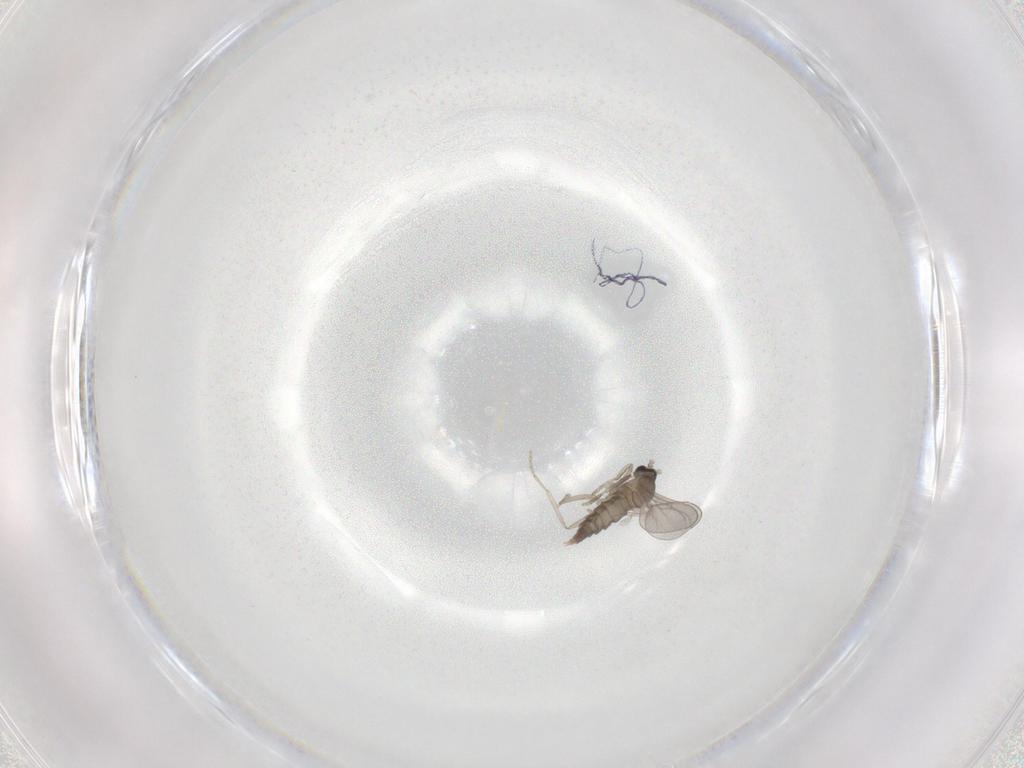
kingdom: Animalia
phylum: Arthropoda
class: Insecta
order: Diptera
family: Cecidomyiidae
